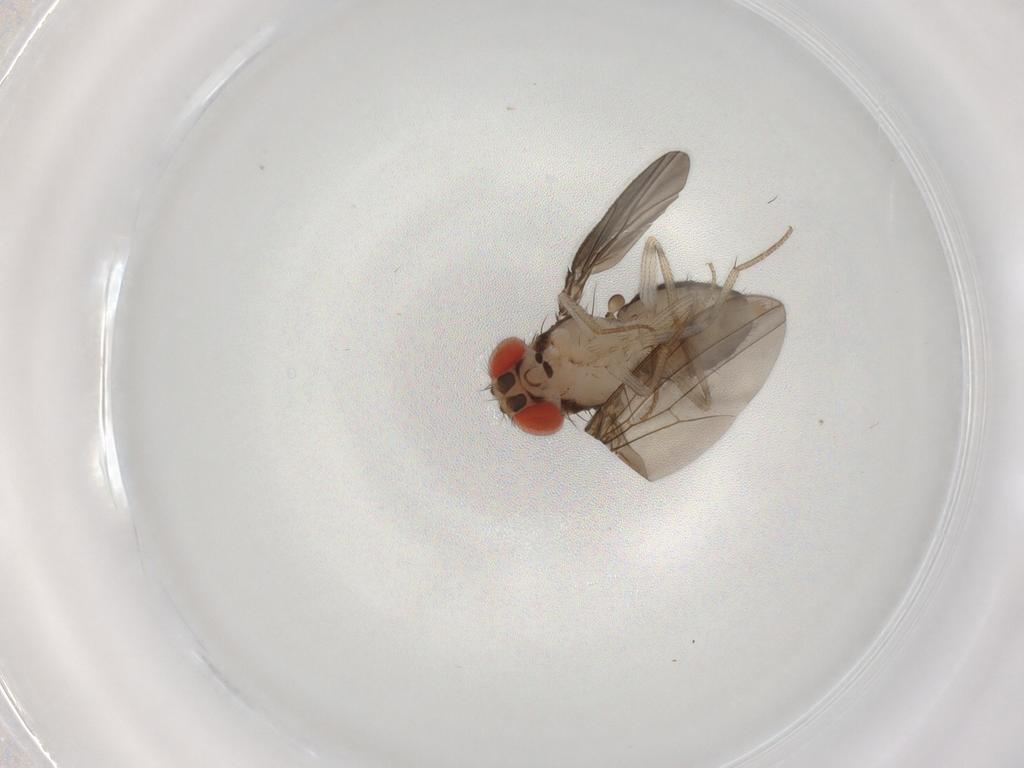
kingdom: Animalia
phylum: Arthropoda
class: Insecta
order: Diptera
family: Drosophilidae
